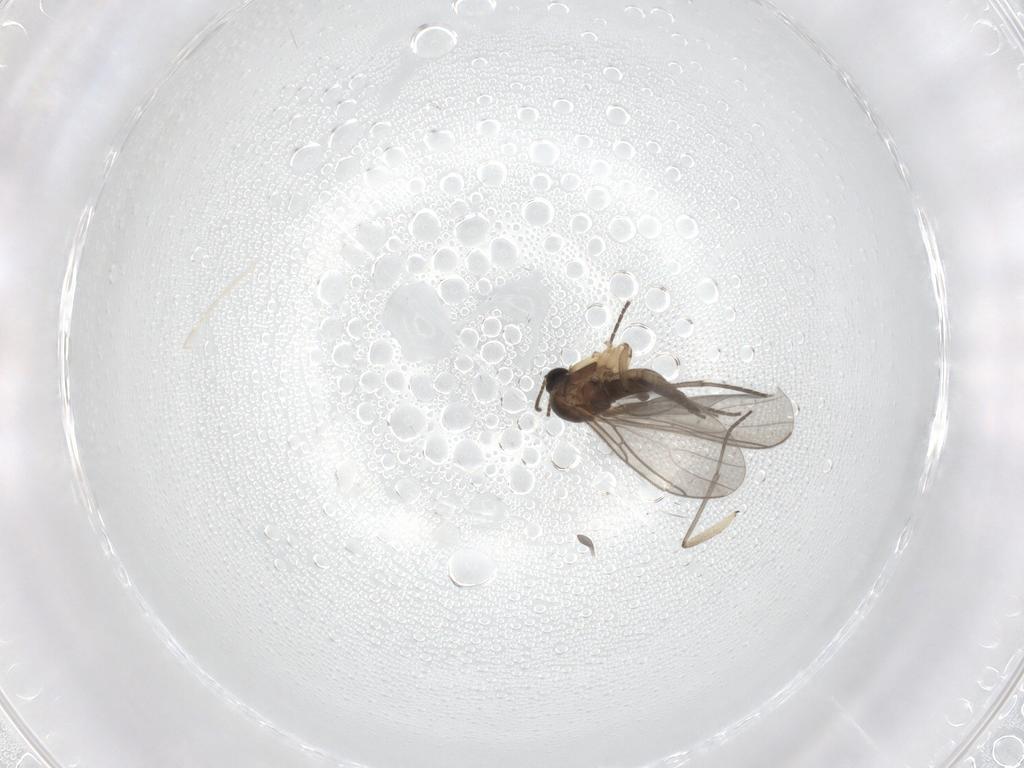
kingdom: Animalia
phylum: Arthropoda
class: Insecta
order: Diptera
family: Sciaridae
